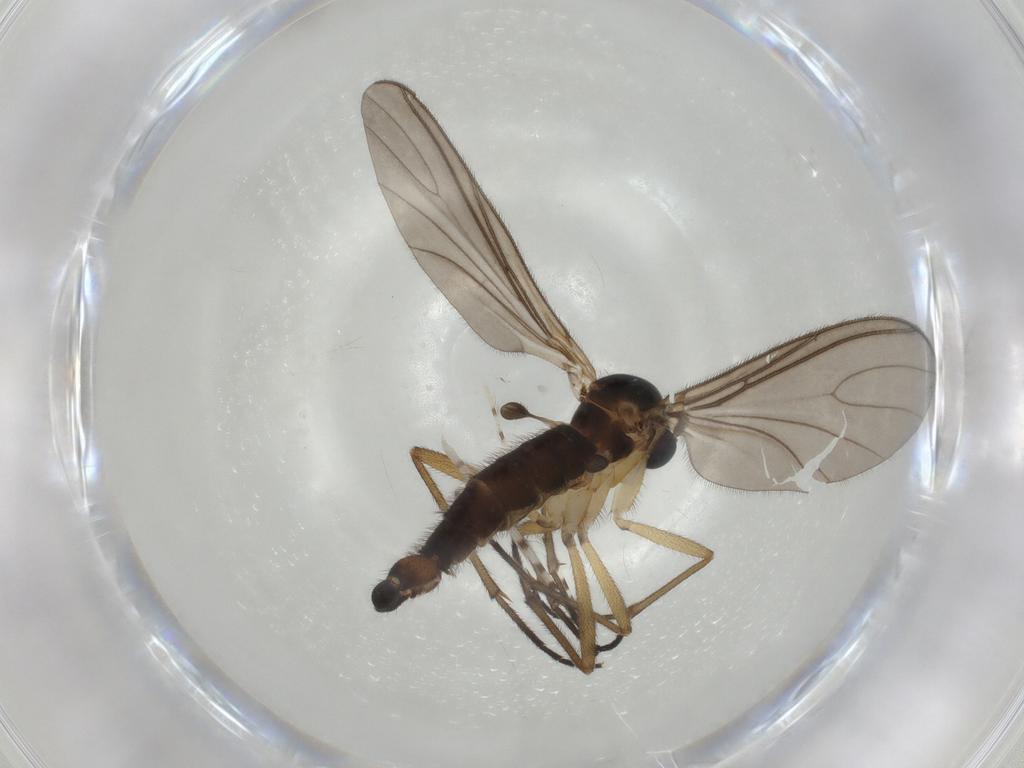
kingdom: Animalia
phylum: Arthropoda
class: Insecta
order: Diptera
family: Sciaridae
